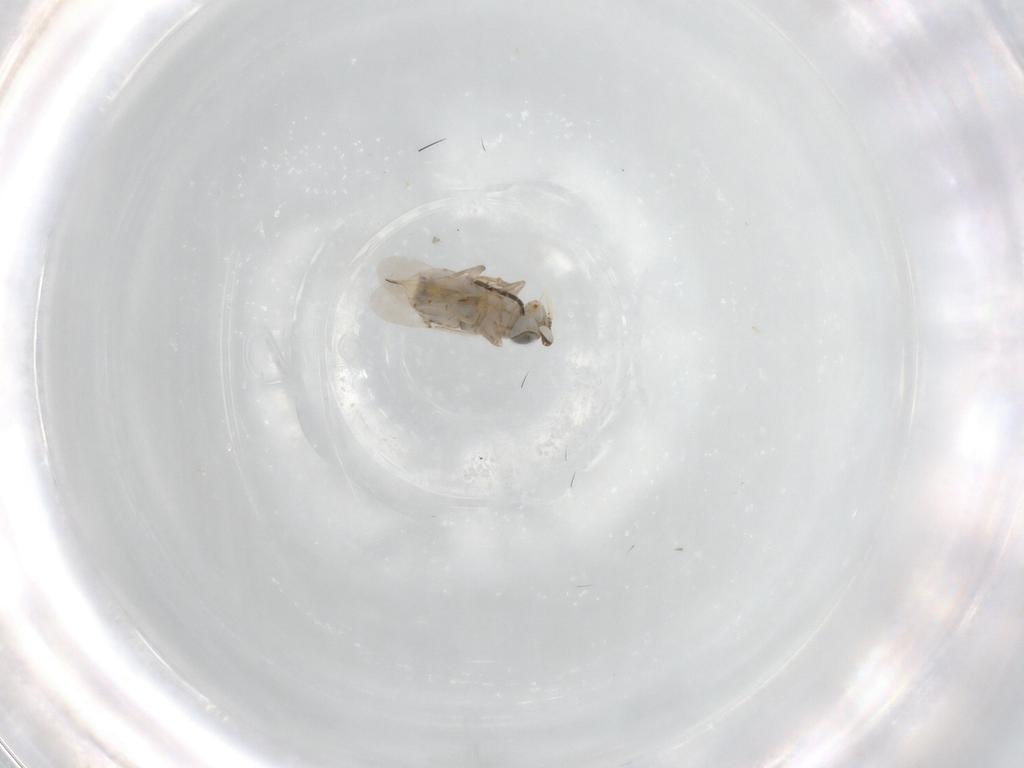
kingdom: Animalia
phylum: Arthropoda
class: Insecta
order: Hymenoptera
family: Encyrtidae
